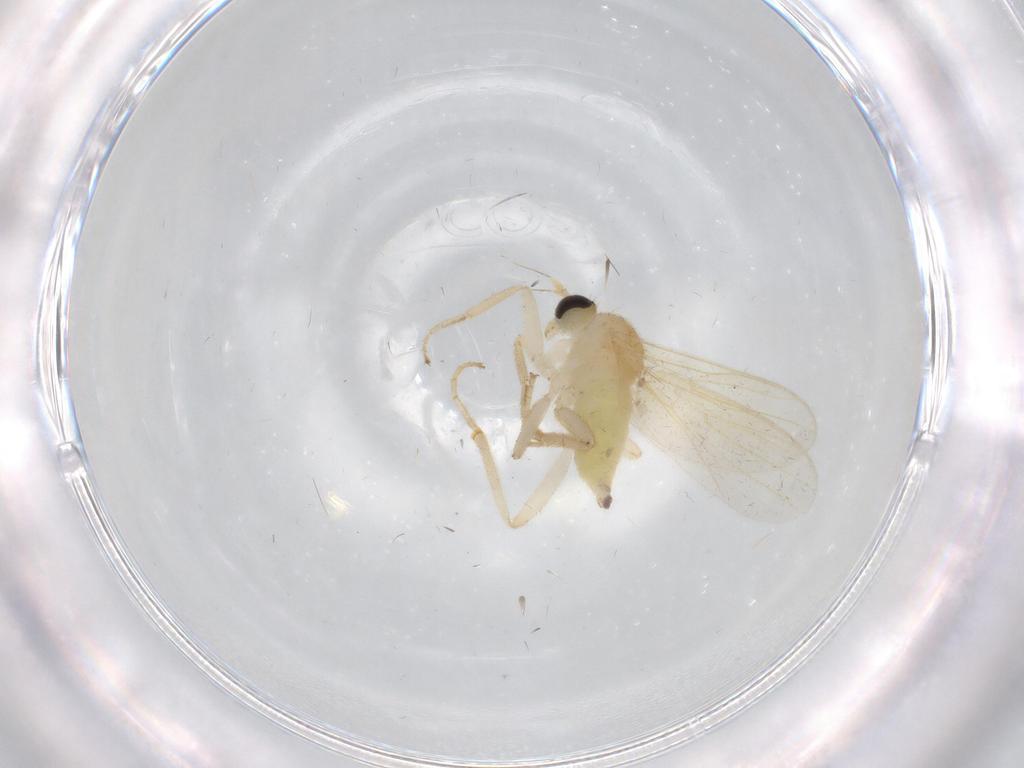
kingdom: Animalia
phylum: Arthropoda
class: Insecta
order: Diptera
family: Hybotidae
